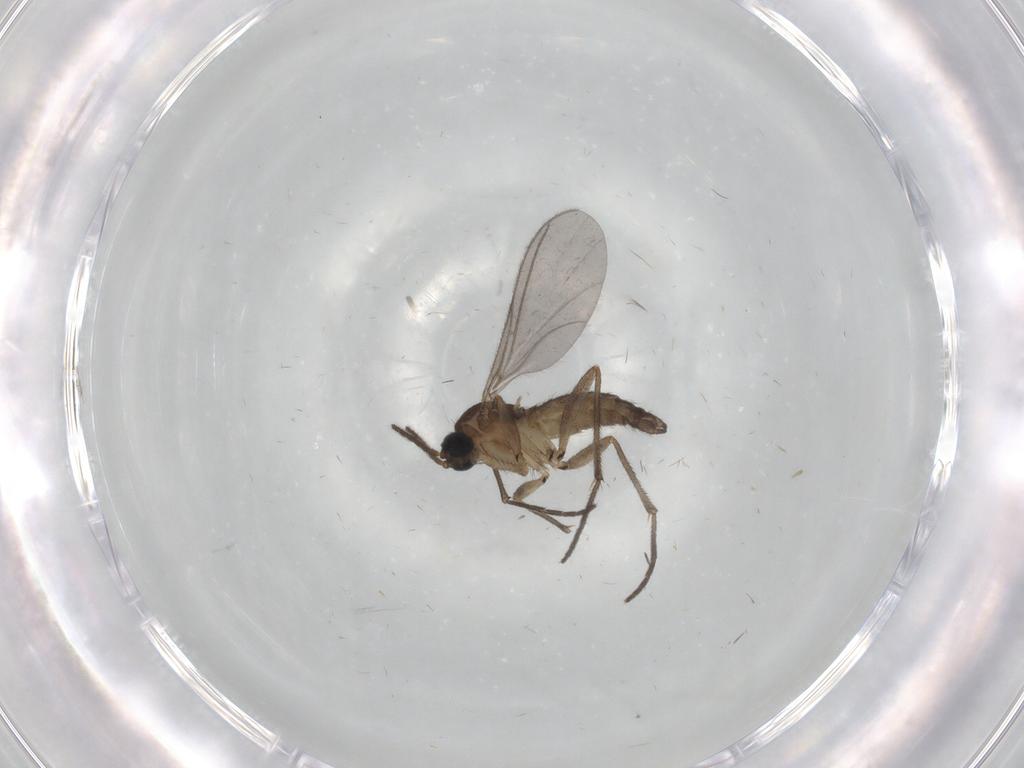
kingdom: Animalia
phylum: Arthropoda
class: Insecta
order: Diptera
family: Sciaridae
